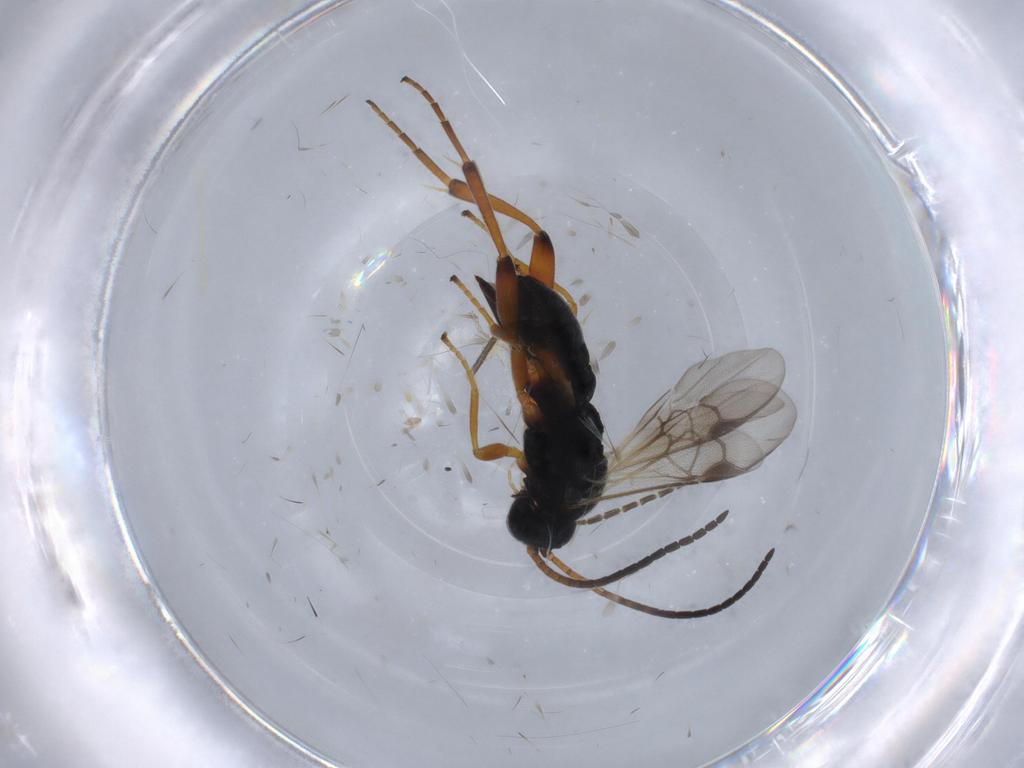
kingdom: Animalia
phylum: Arthropoda
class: Insecta
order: Hymenoptera
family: Braconidae
